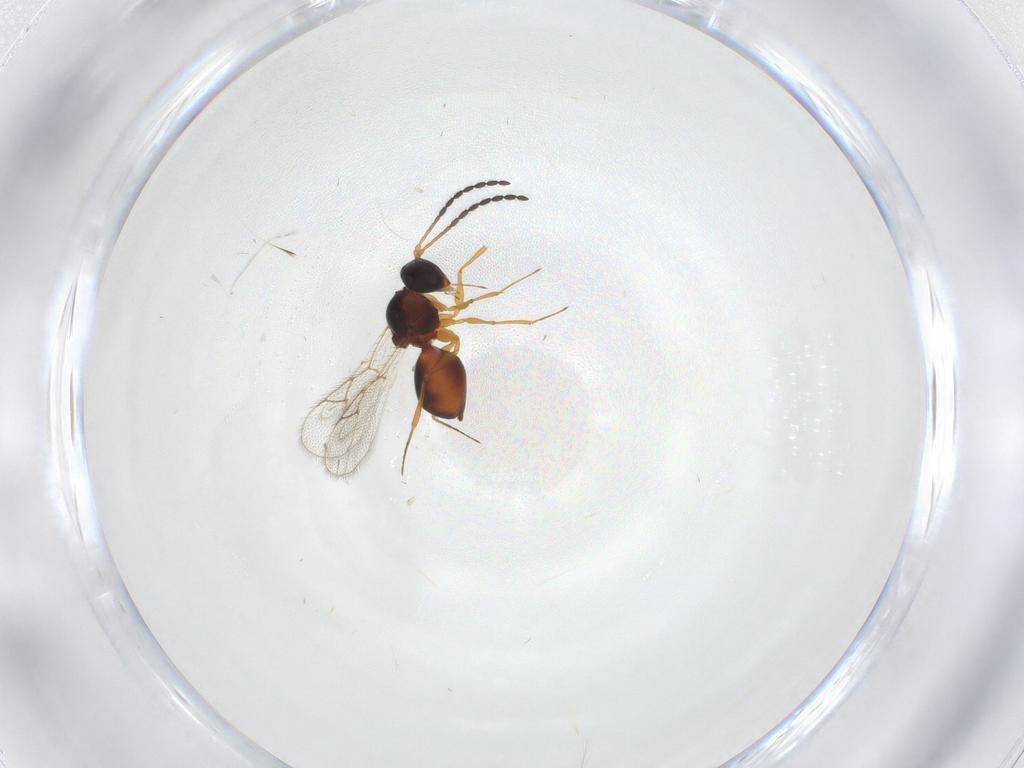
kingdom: Animalia
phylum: Arthropoda
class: Insecta
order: Hymenoptera
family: Figitidae
